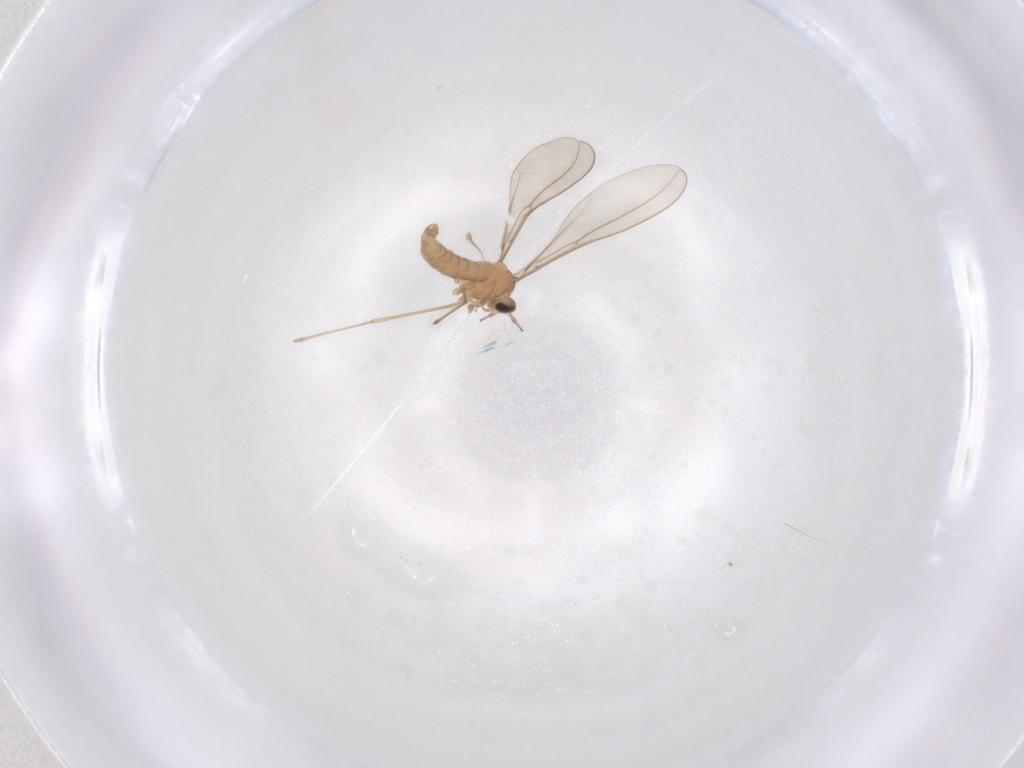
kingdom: Animalia
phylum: Arthropoda
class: Insecta
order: Diptera
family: Cecidomyiidae
